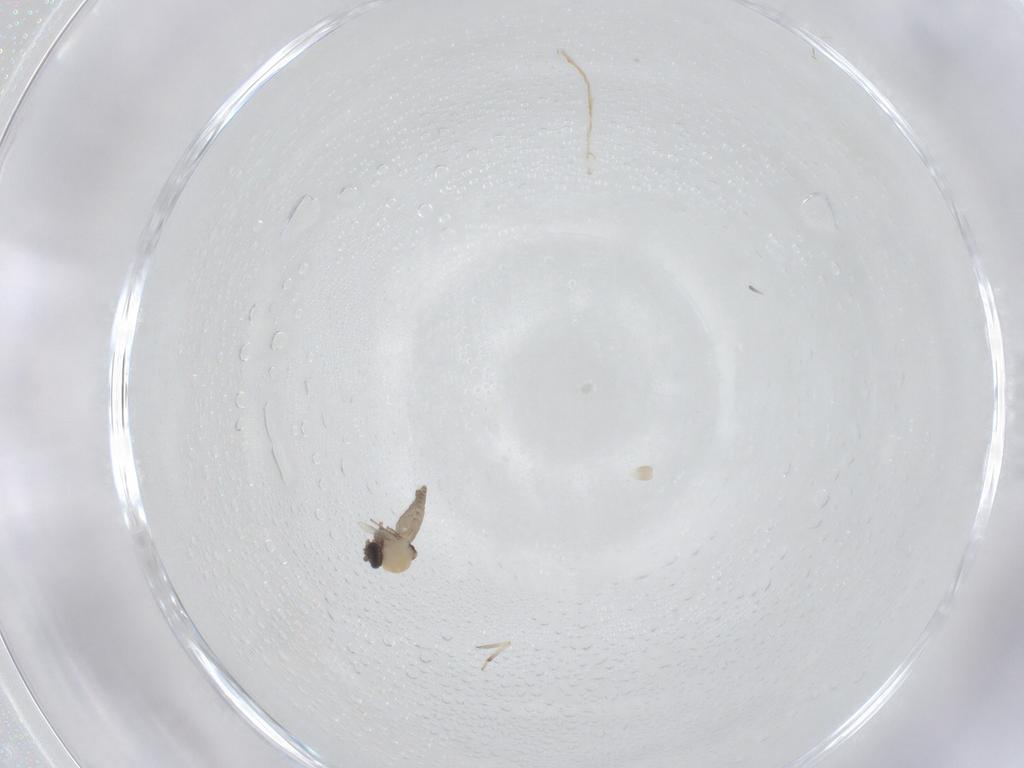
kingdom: Animalia
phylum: Arthropoda
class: Insecta
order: Diptera
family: Ceratopogonidae
